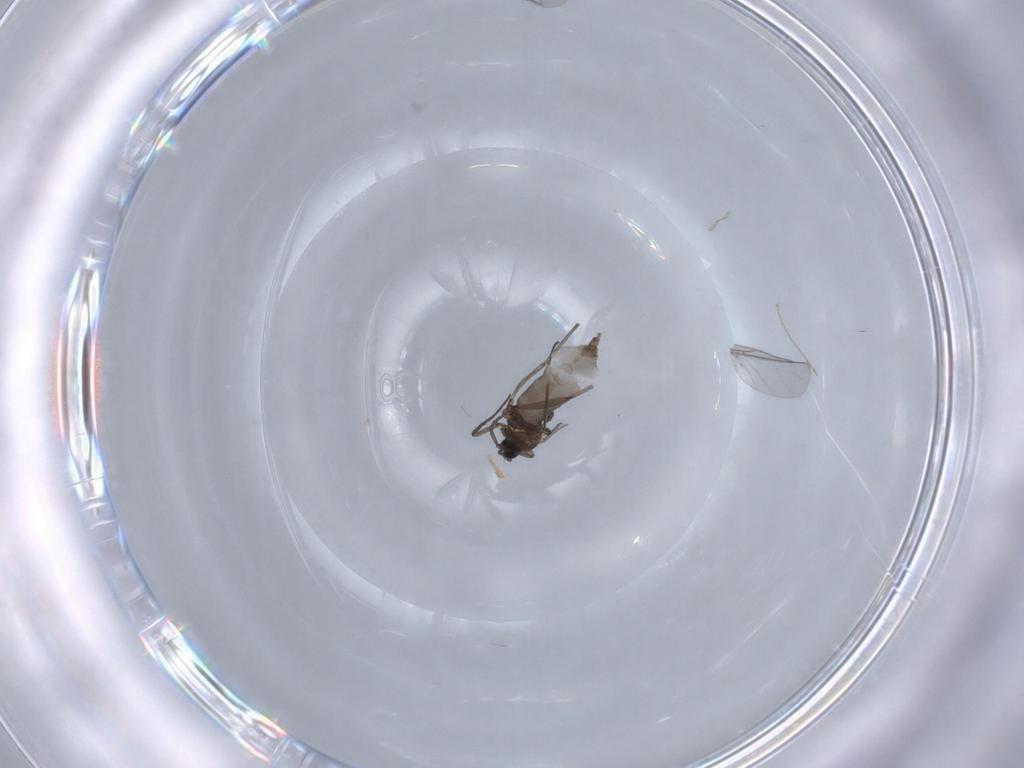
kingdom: Animalia
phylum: Arthropoda
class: Insecta
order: Diptera
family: Sciaridae
